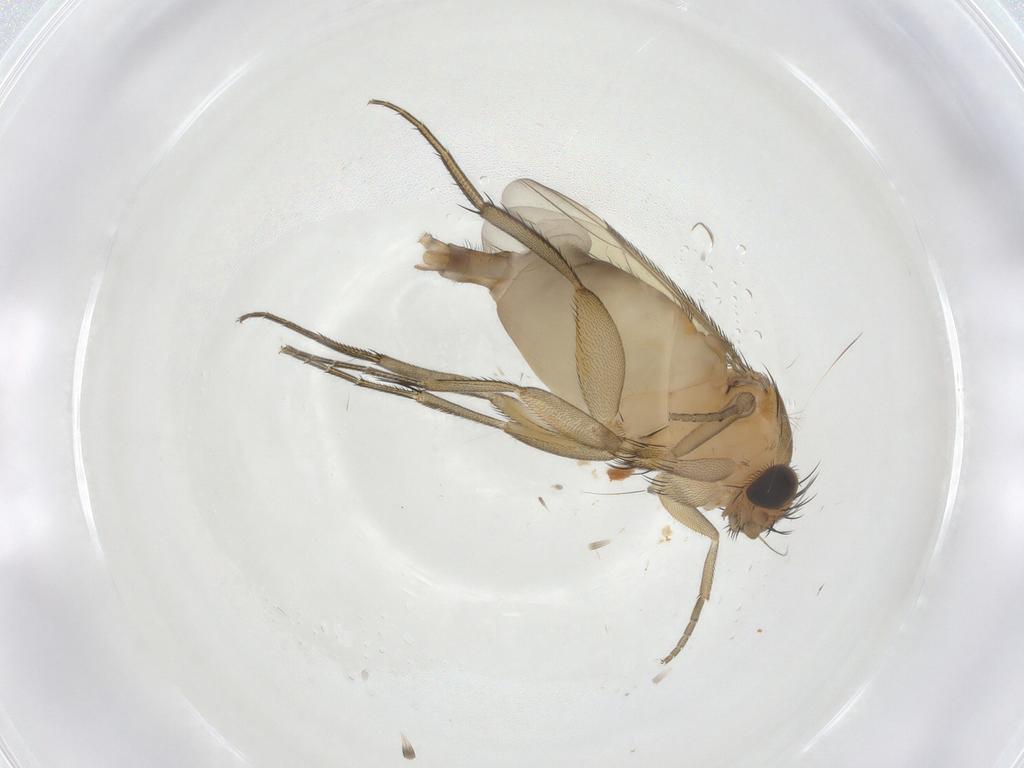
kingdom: Animalia
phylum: Arthropoda
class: Insecta
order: Diptera
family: Phoridae
